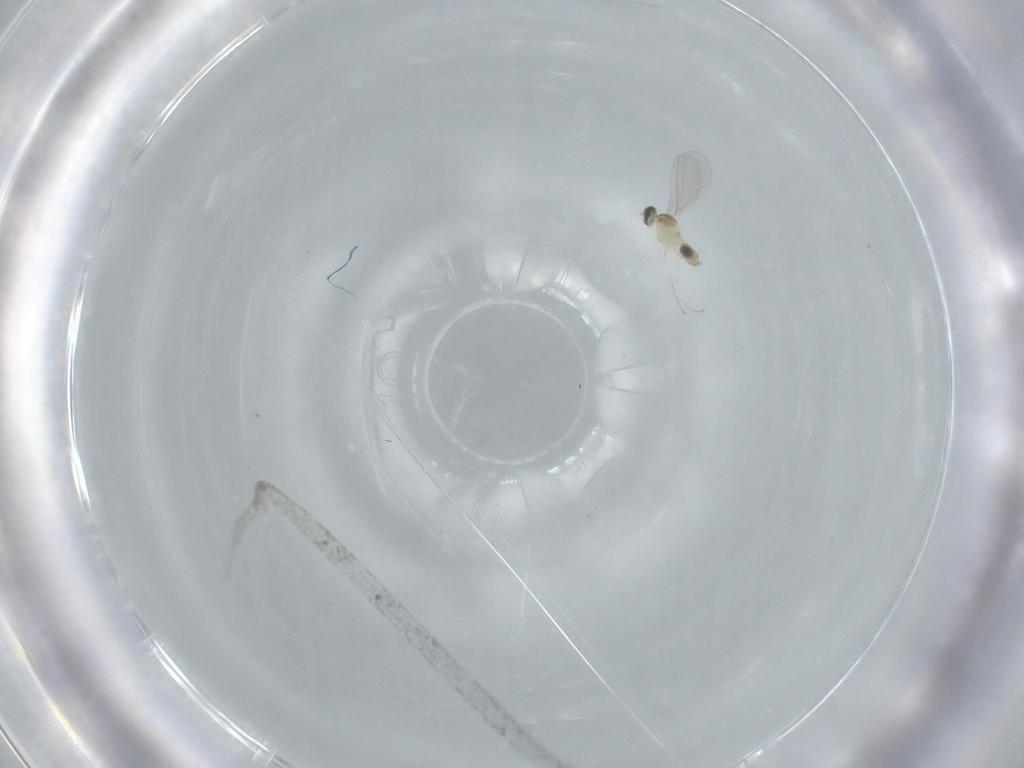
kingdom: Animalia
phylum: Arthropoda
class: Insecta
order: Diptera
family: Cecidomyiidae
